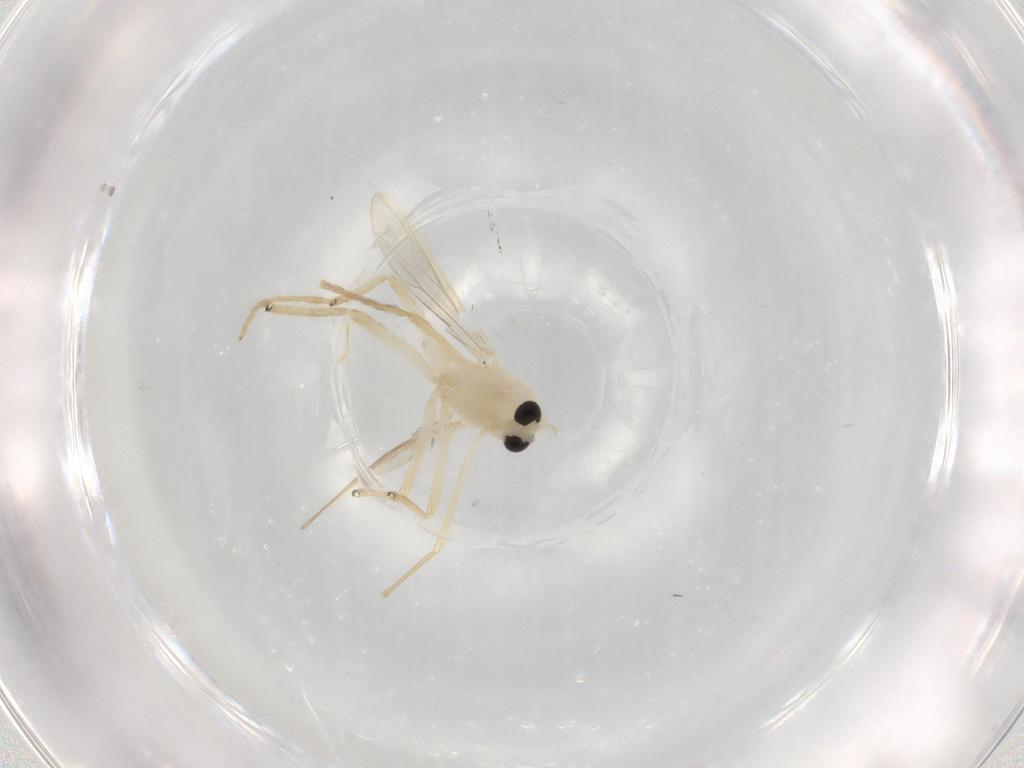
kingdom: Animalia
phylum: Arthropoda
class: Insecta
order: Diptera
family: Chironomidae
